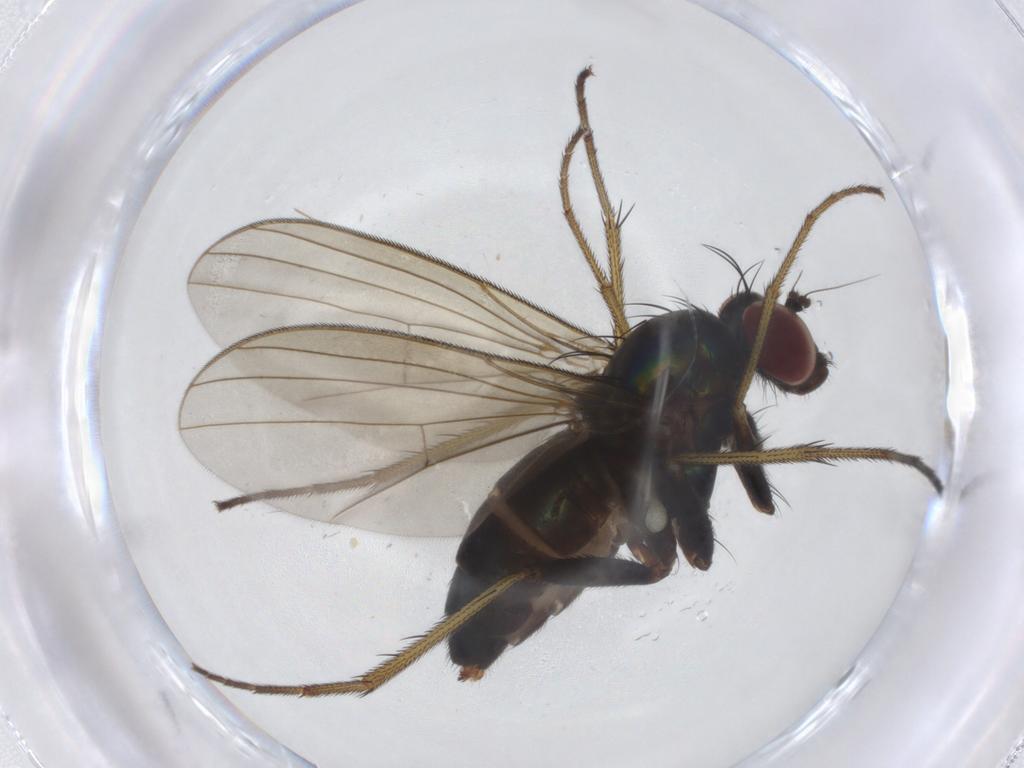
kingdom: Animalia
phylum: Arthropoda
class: Insecta
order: Diptera
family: Dolichopodidae
